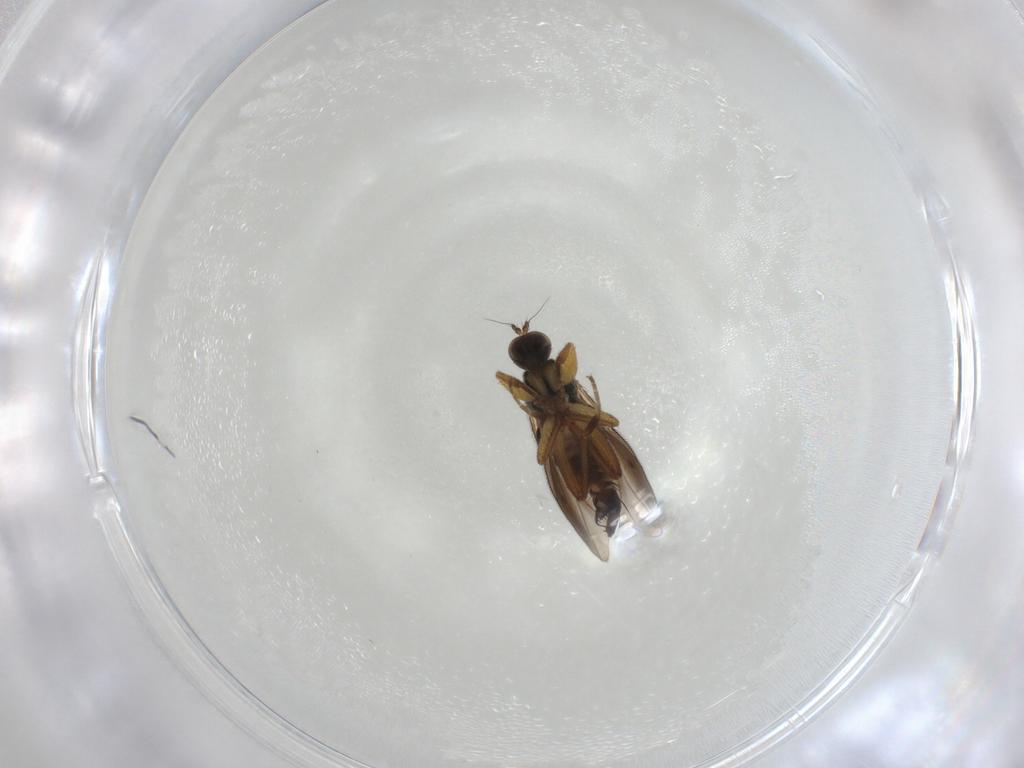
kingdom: Animalia
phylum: Arthropoda
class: Insecta
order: Diptera
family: Hybotidae
